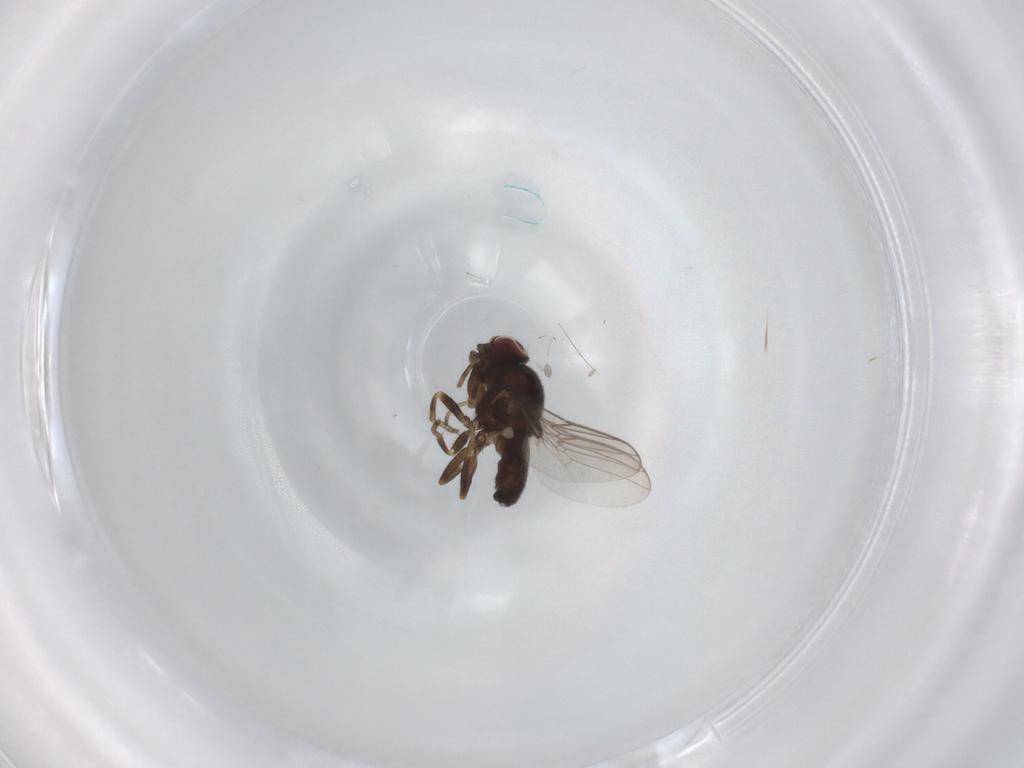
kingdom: Animalia
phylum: Arthropoda
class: Insecta
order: Diptera
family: Chloropidae
